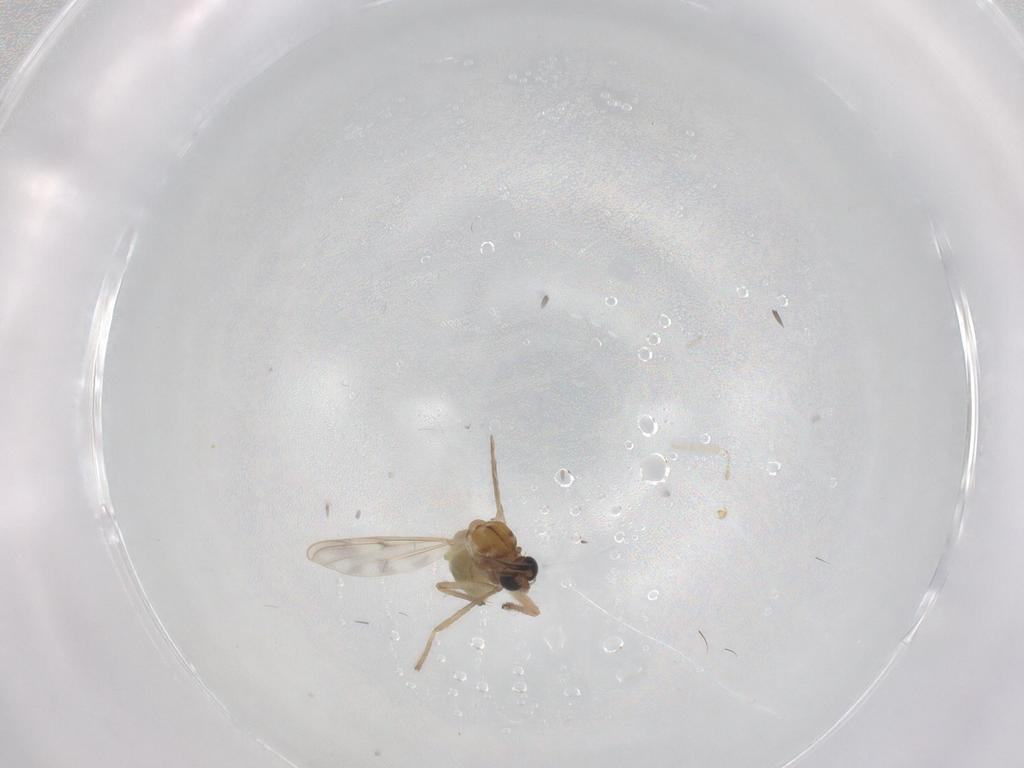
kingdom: Animalia
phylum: Arthropoda
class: Insecta
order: Diptera
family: Chironomidae
